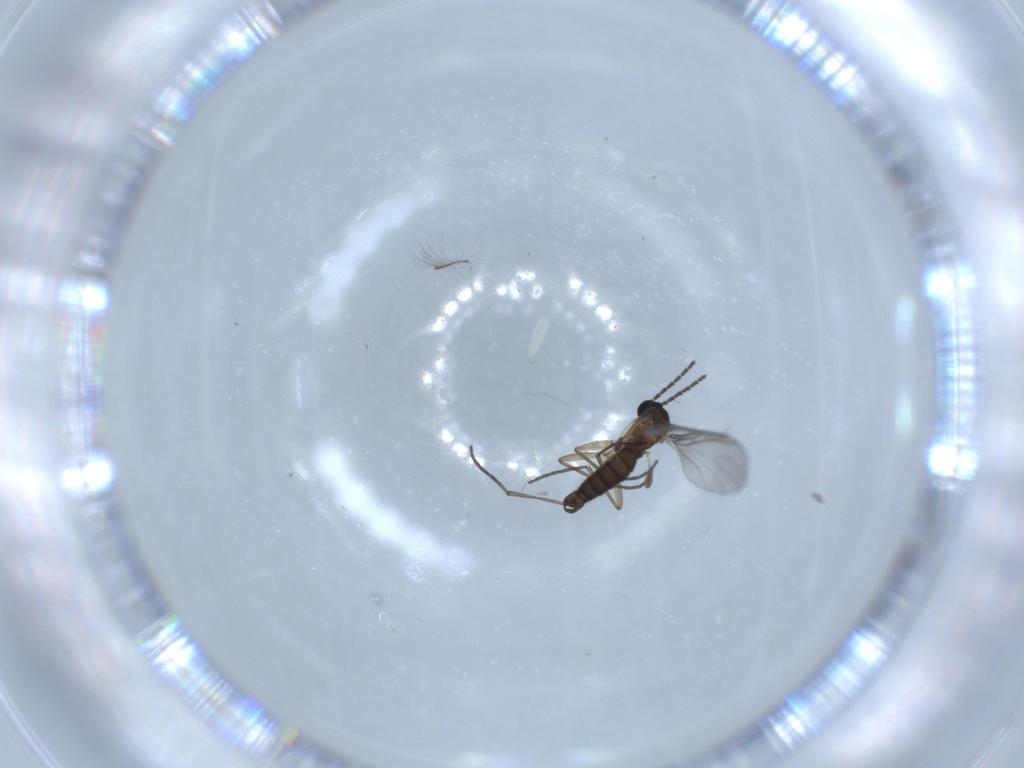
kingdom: Animalia
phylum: Arthropoda
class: Insecta
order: Diptera
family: Sciaridae
